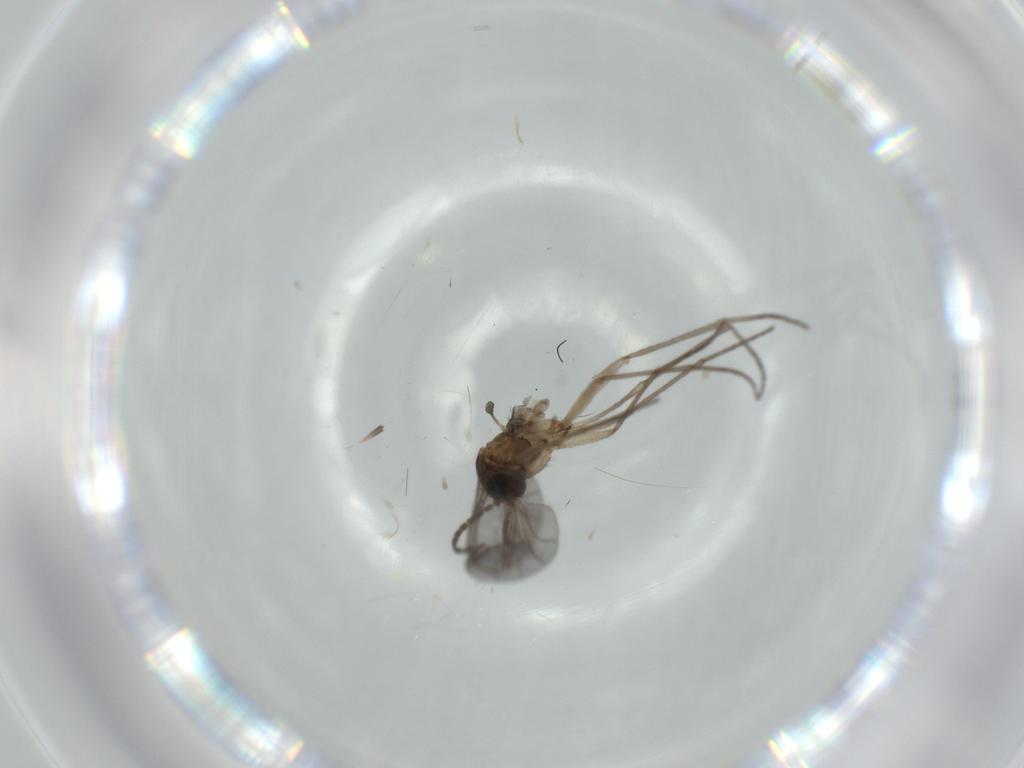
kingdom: Animalia
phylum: Arthropoda
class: Insecta
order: Diptera
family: Sciaridae
